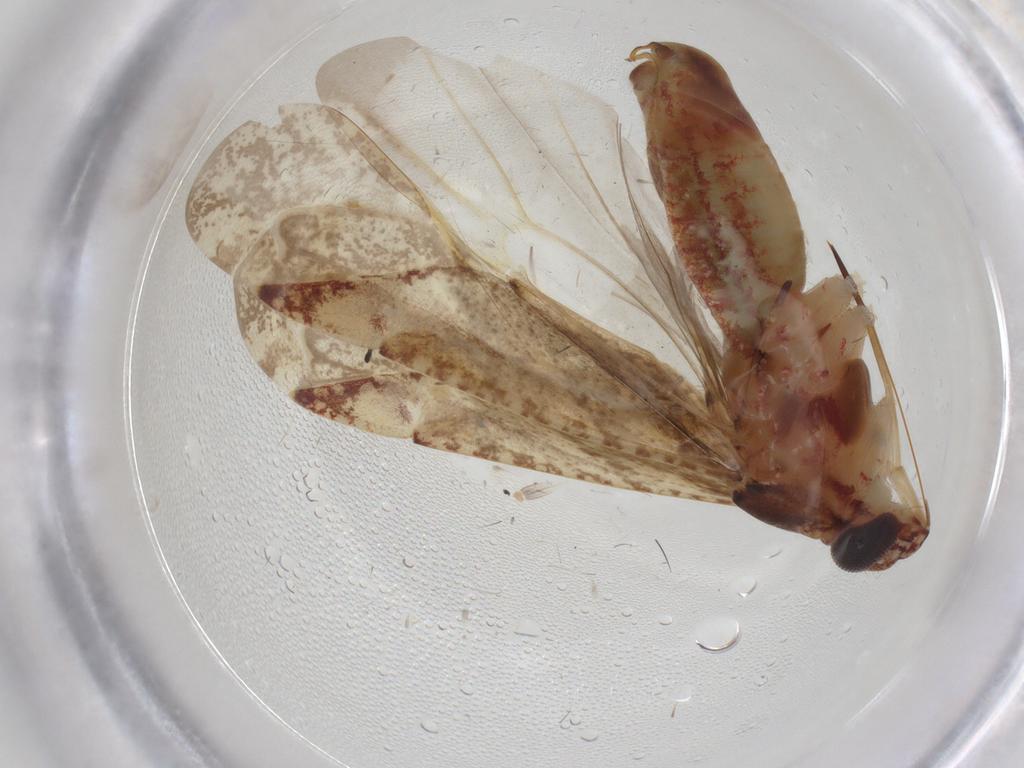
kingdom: Animalia
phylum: Arthropoda
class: Insecta
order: Hemiptera
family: Miridae
